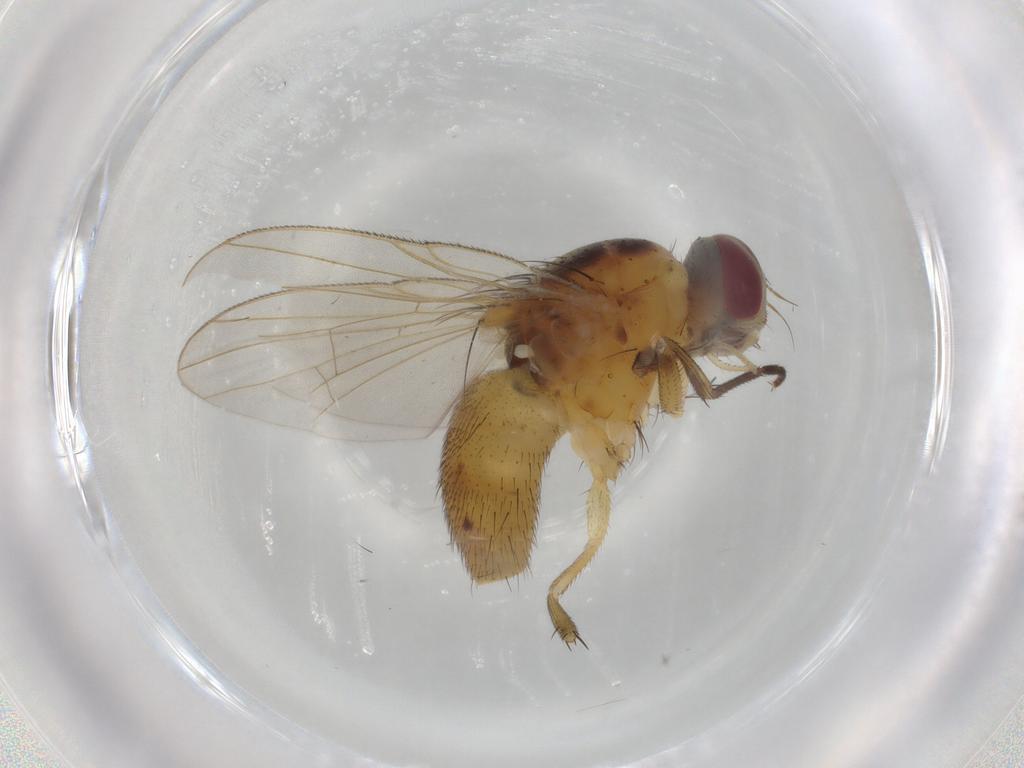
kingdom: Animalia
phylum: Arthropoda
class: Insecta
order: Diptera
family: Muscidae
